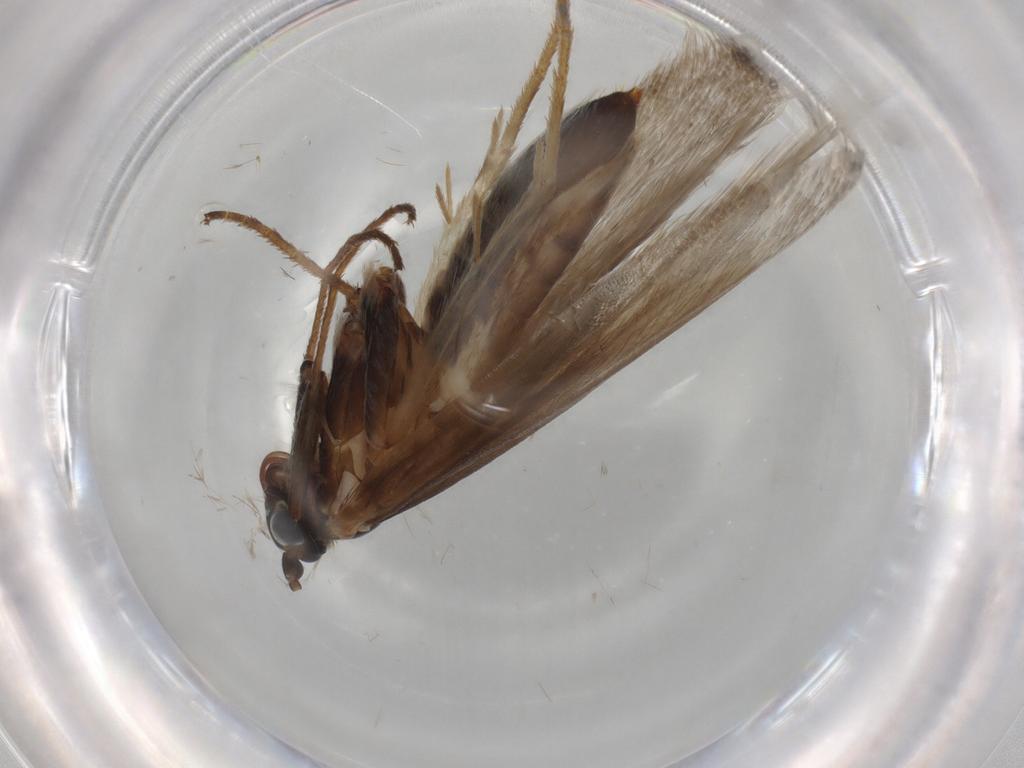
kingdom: Animalia
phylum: Arthropoda
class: Insecta
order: Lepidoptera
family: Adelidae
